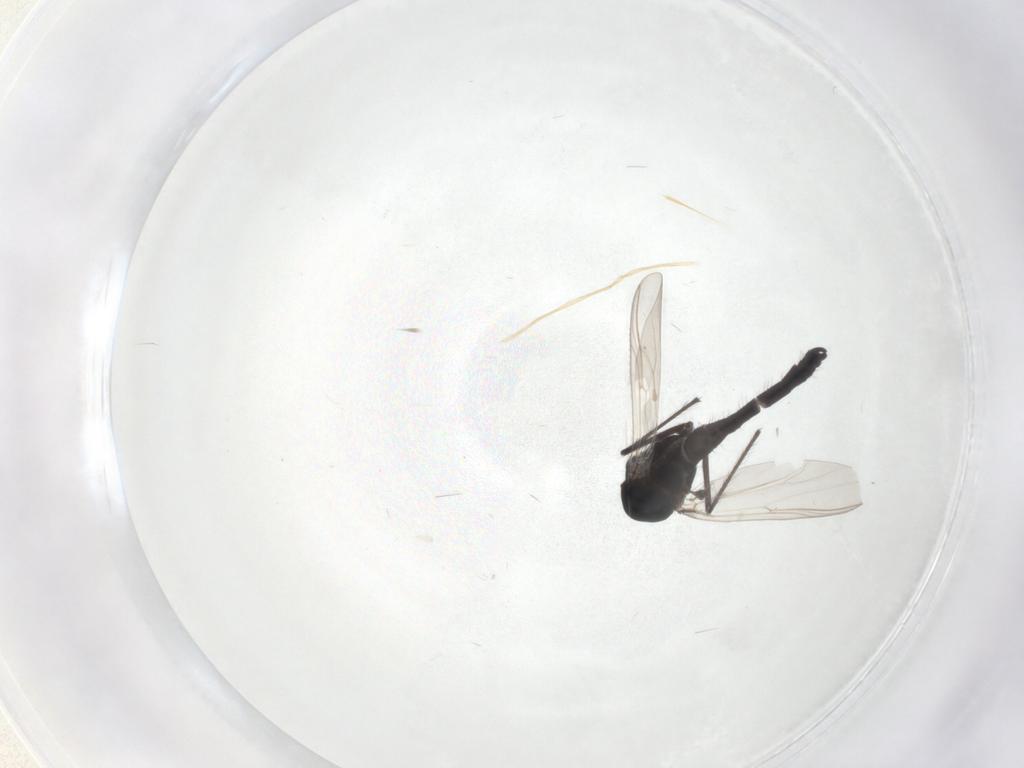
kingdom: Animalia
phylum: Arthropoda
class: Insecta
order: Diptera
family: Chironomidae
